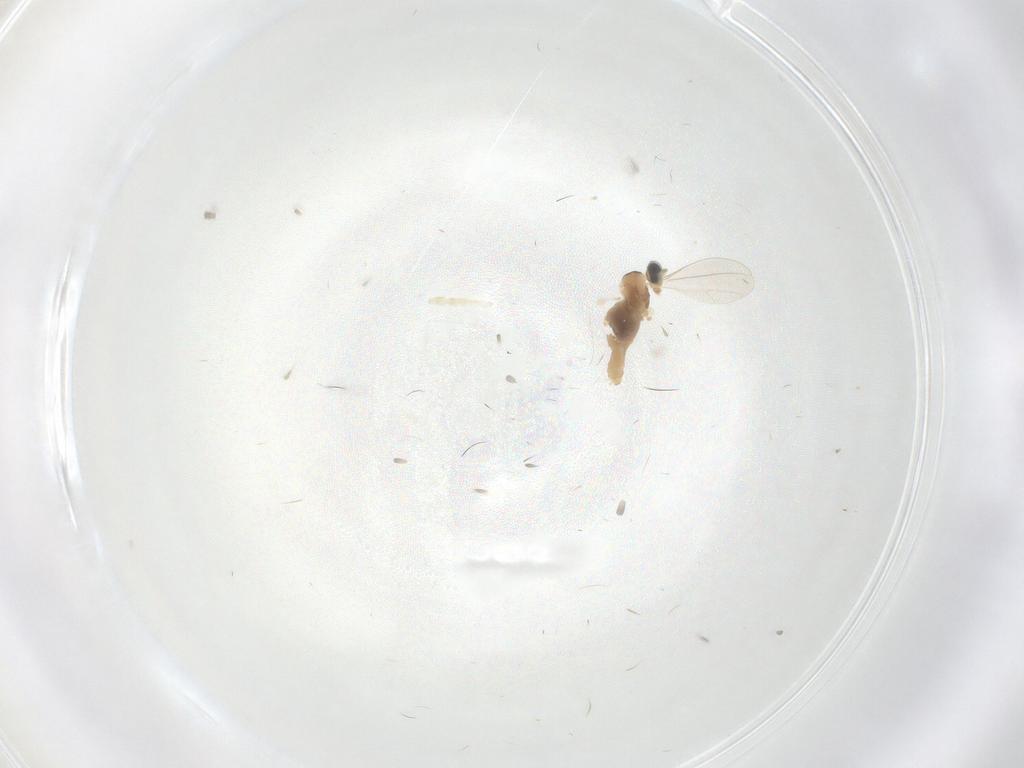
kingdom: Animalia
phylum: Arthropoda
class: Insecta
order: Diptera
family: Cecidomyiidae
